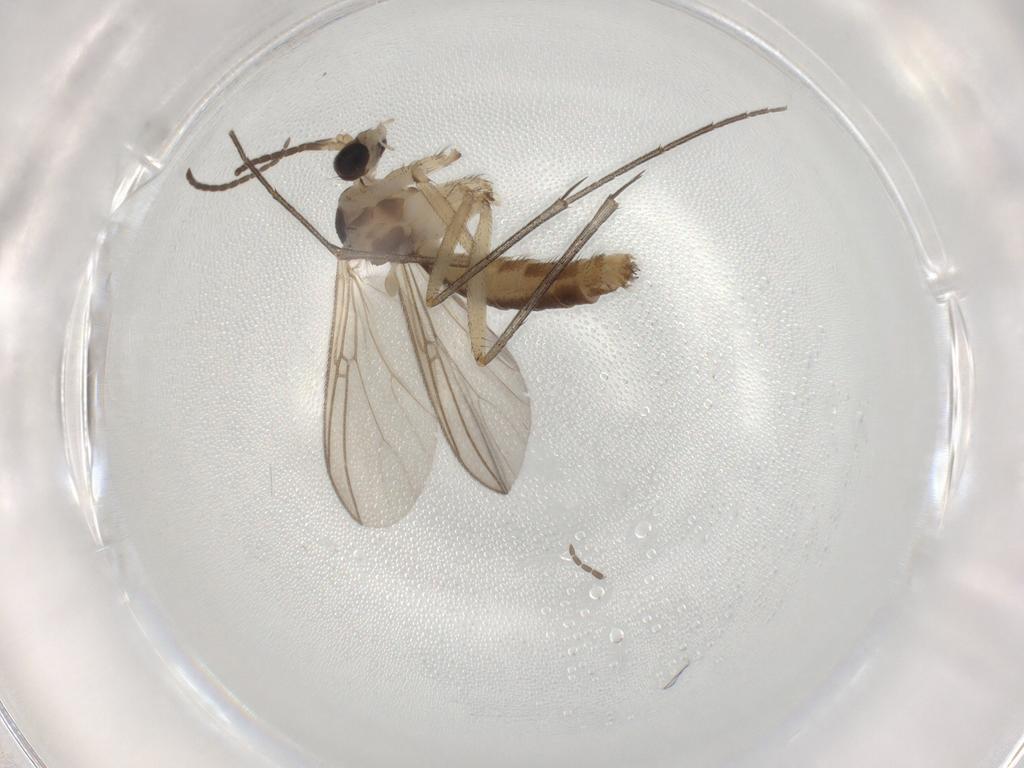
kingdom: Animalia
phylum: Arthropoda
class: Insecta
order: Diptera
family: Mycetophilidae
